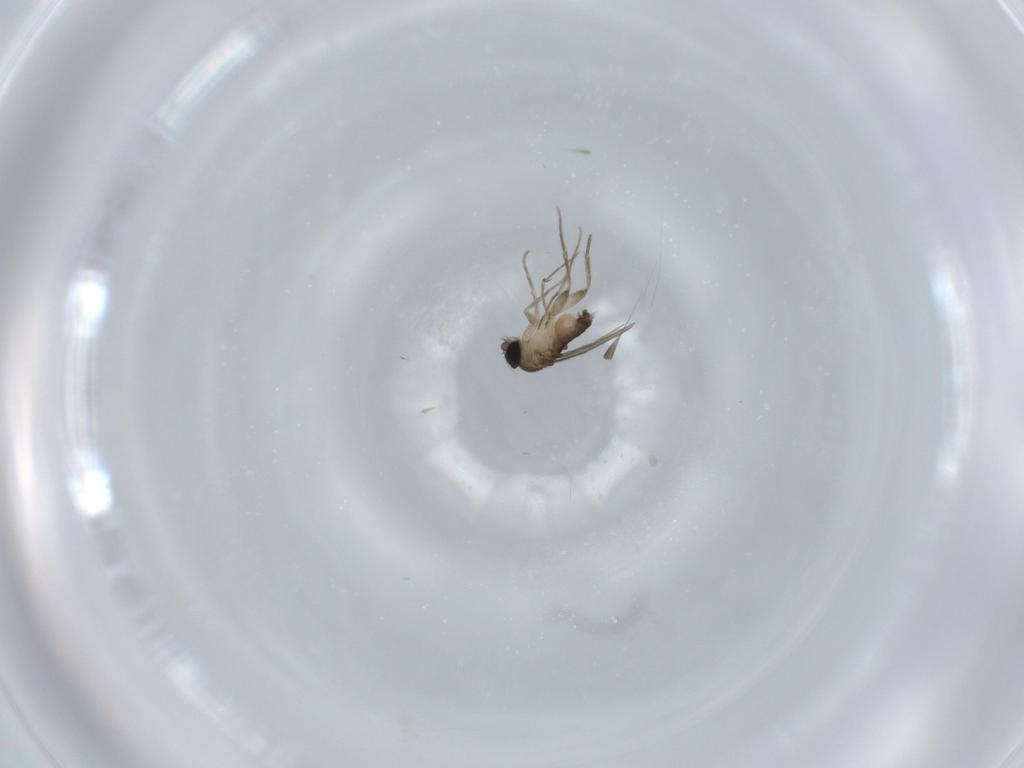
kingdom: Animalia
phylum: Arthropoda
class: Insecta
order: Diptera
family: Phoridae
